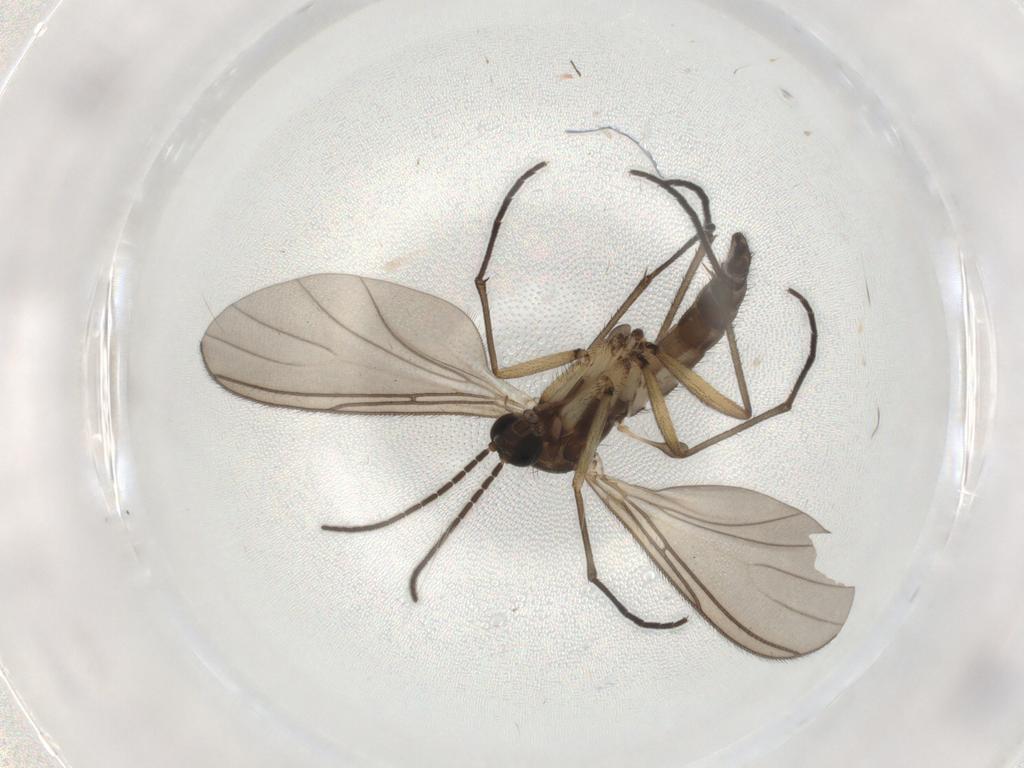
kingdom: Animalia
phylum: Arthropoda
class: Insecta
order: Diptera
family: Sciaridae
